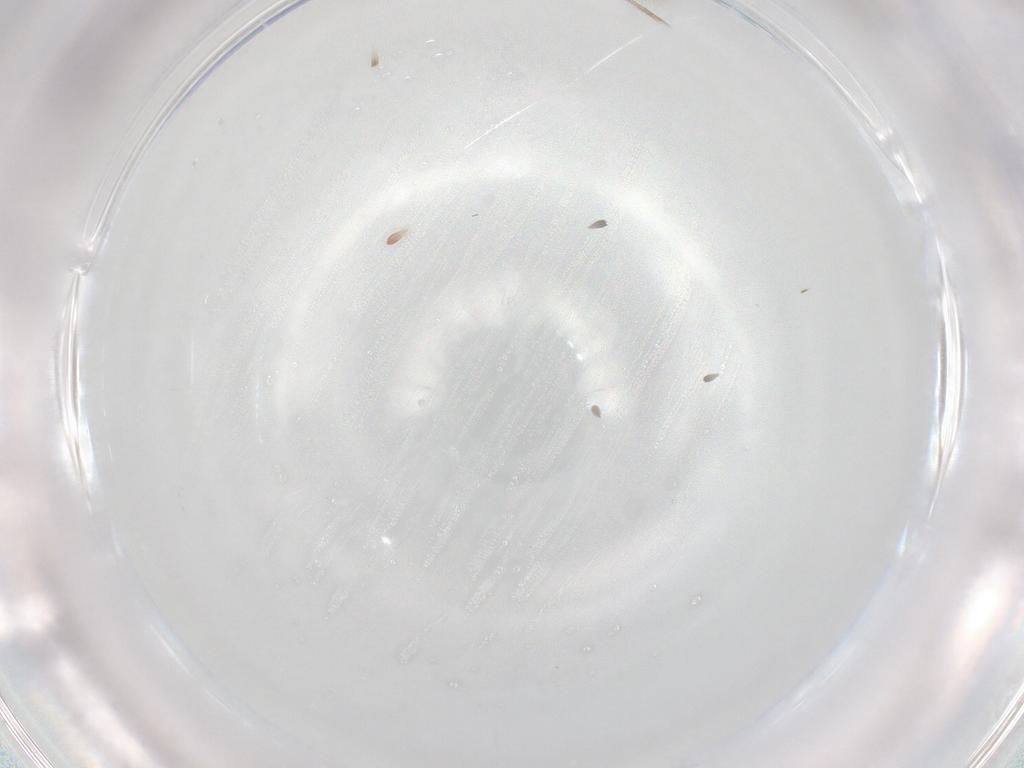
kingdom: Animalia
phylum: Arthropoda
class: Insecta
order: Hymenoptera
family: Mymaridae
